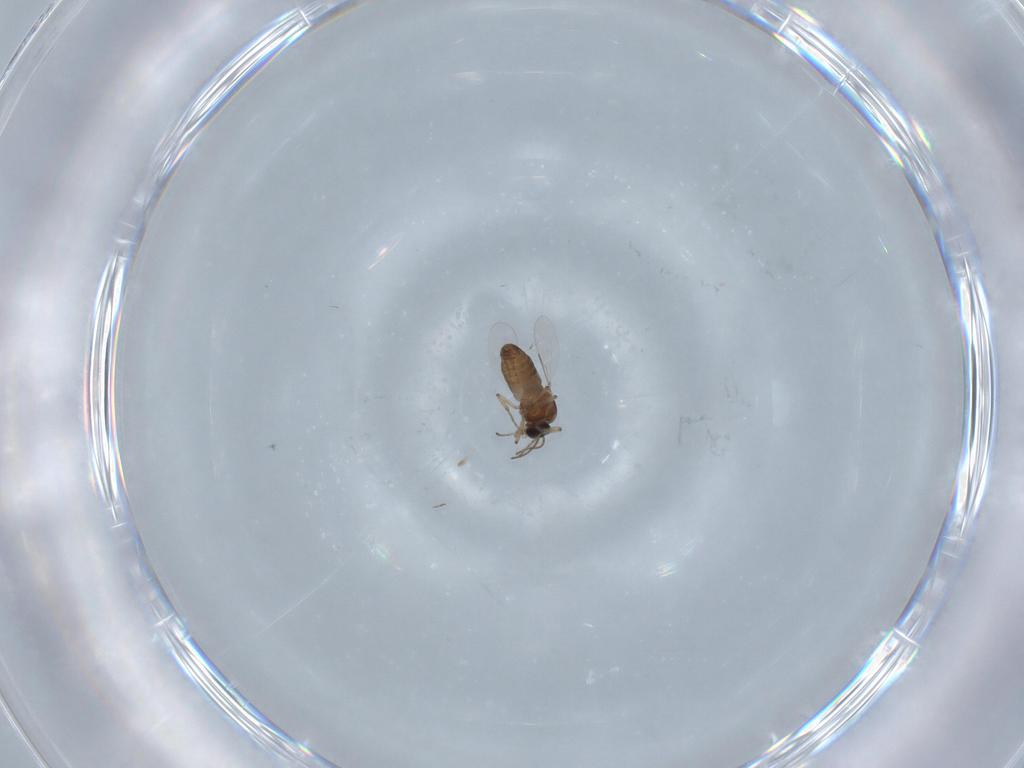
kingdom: Animalia
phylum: Arthropoda
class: Insecta
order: Diptera
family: Ceratopogonidae
